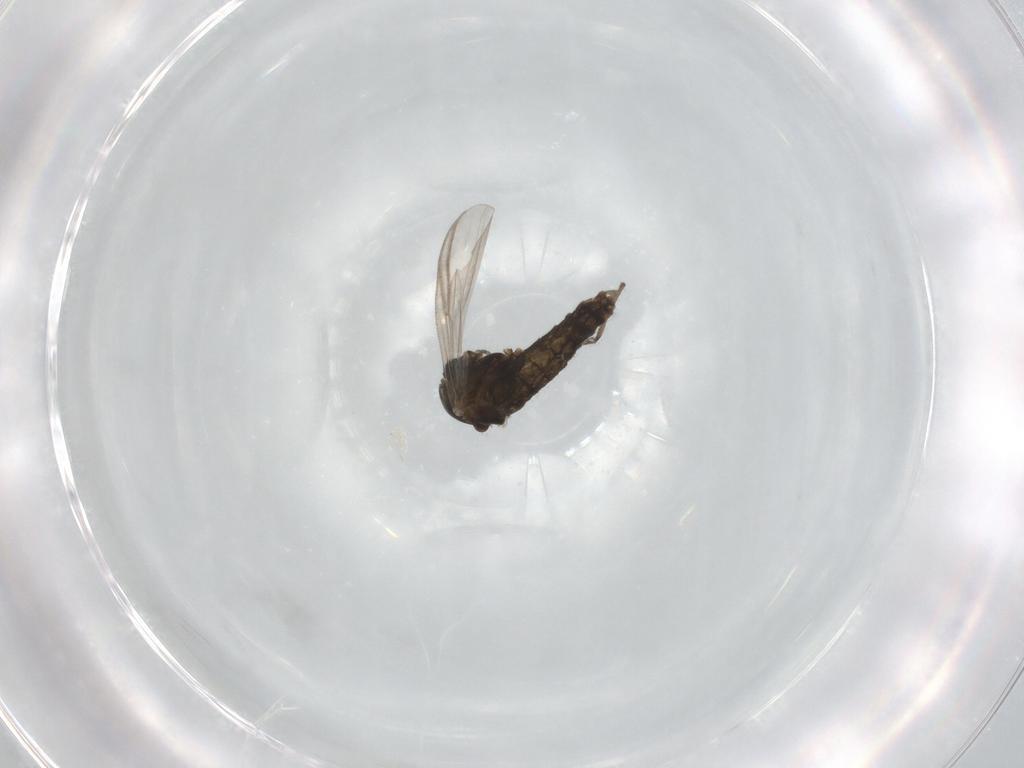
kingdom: Animalia
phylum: Arthropoda
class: Insecta
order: Diptera
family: Chironomidae
